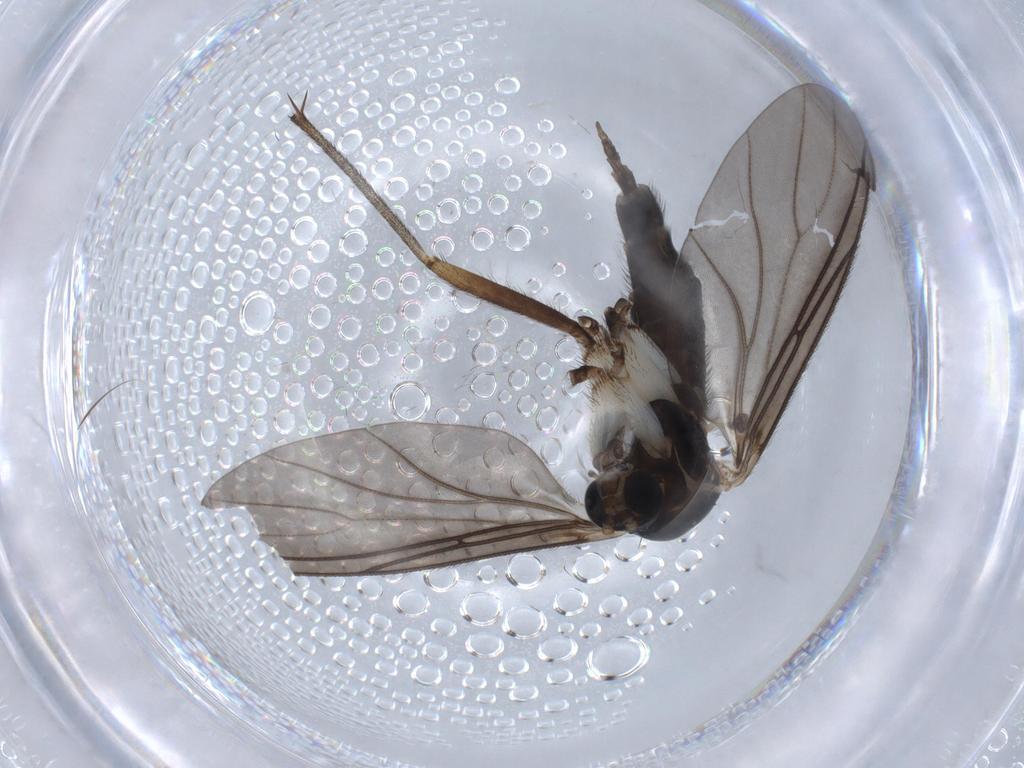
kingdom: Animalia
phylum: Arthropoda
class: Insecta
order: Diptera
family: Sciaridae
